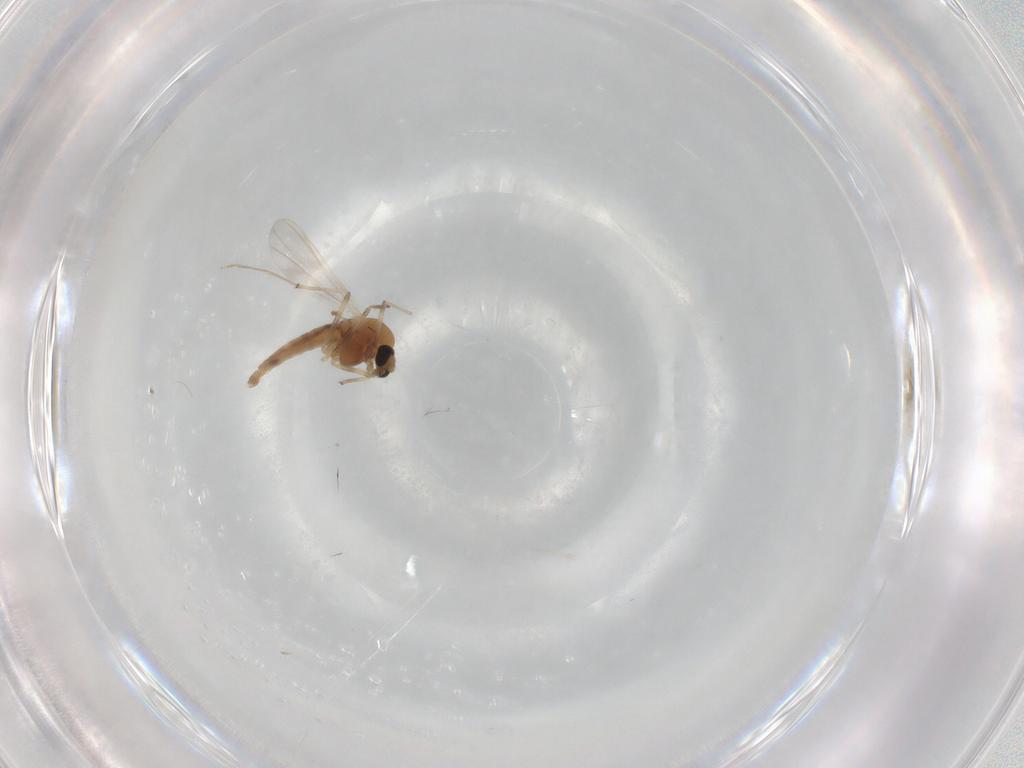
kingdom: Animalia
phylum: Arthropoda
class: Insecta
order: Diptera
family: Chironomidae
